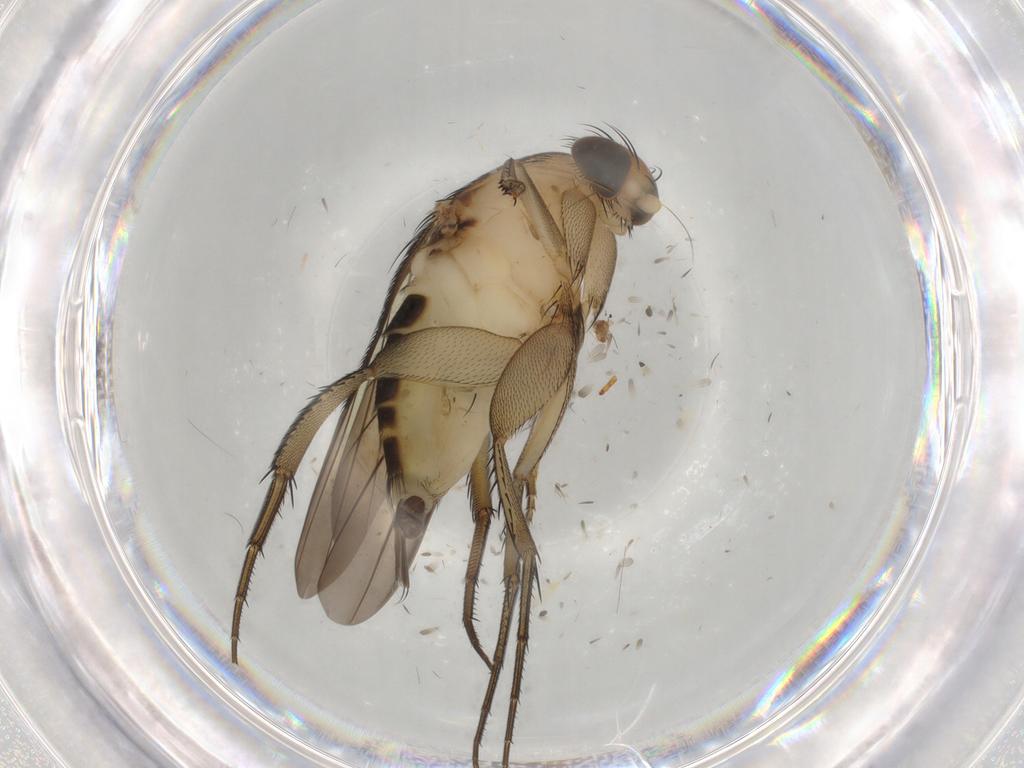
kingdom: Animalia
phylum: Arthropoda
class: Insecta
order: Diptera
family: Phoridae
